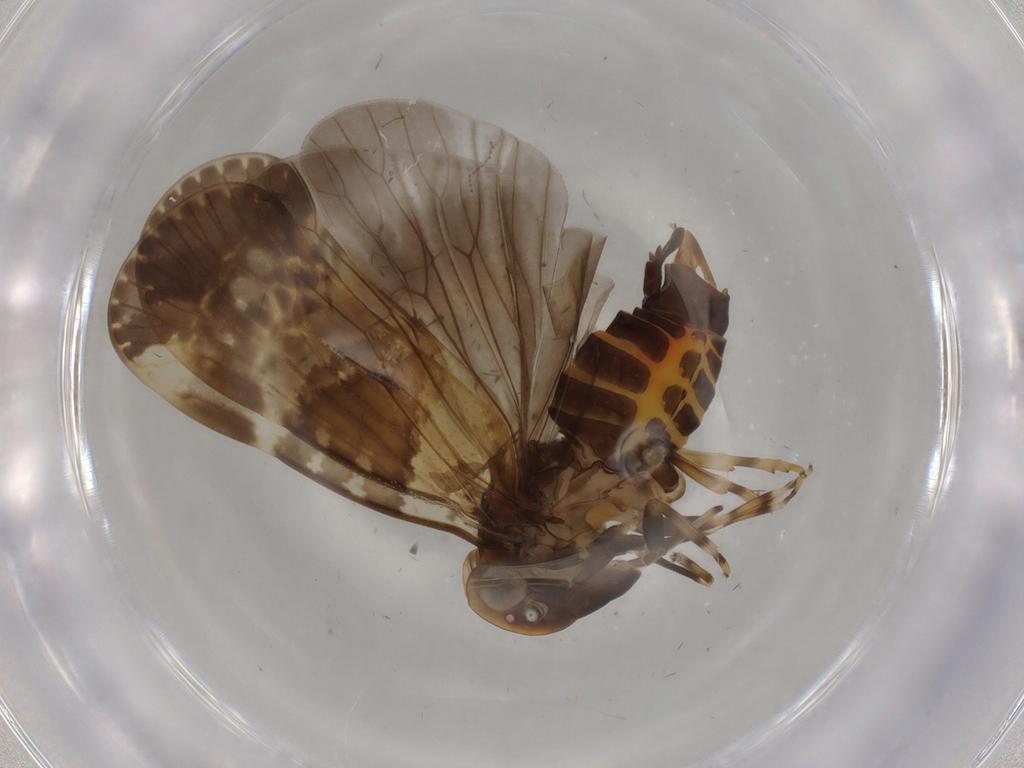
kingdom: Animalia
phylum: Arthropoda
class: Insecta
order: Hemiptera
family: Cixiidae
